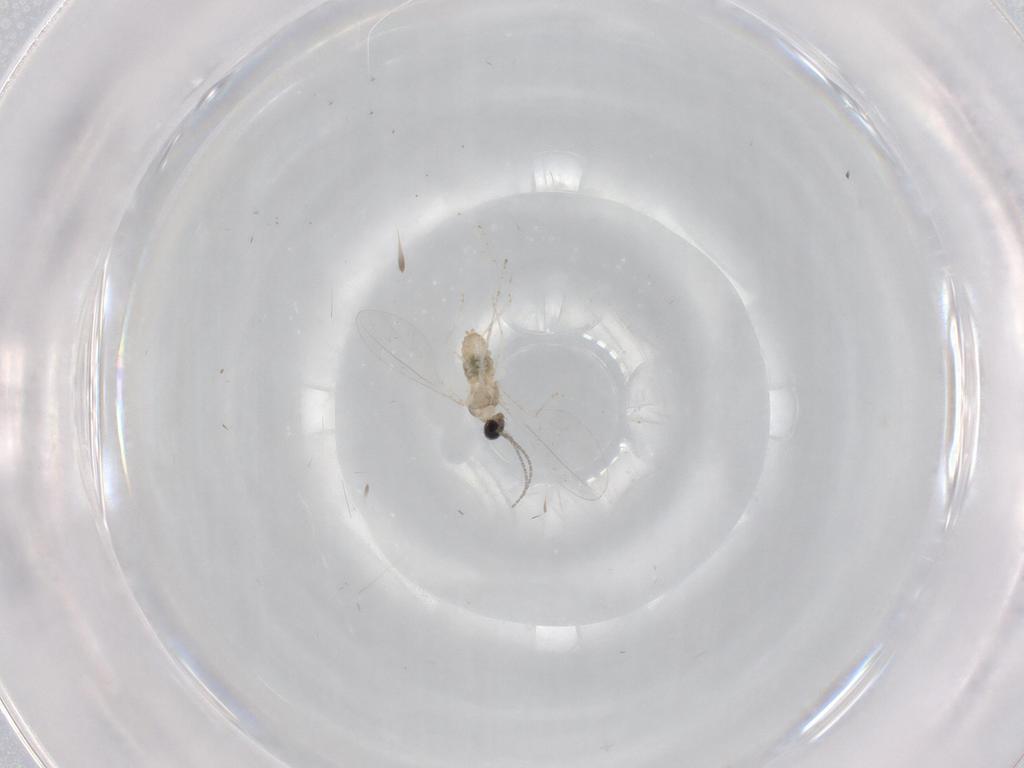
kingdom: Animalia
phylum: Arthropoda
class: Insecta
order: Diptera
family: Cecidomyiidae
